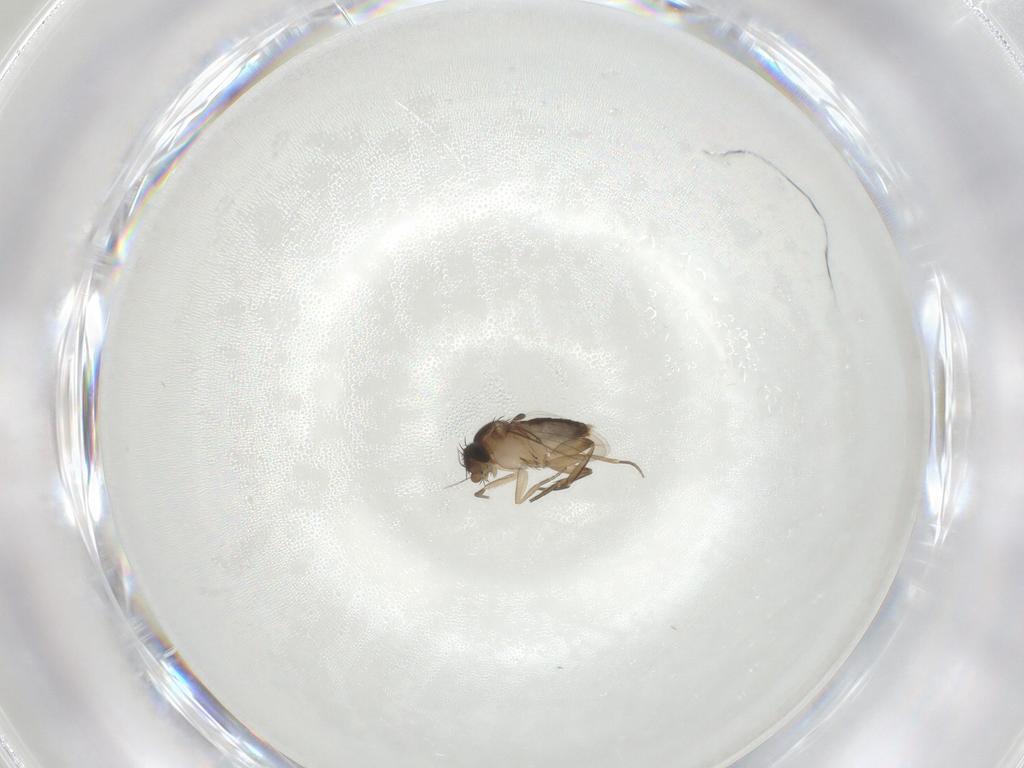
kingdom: Animalia
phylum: Arthropoda
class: Insecta
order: Diptera
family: Phoridae
